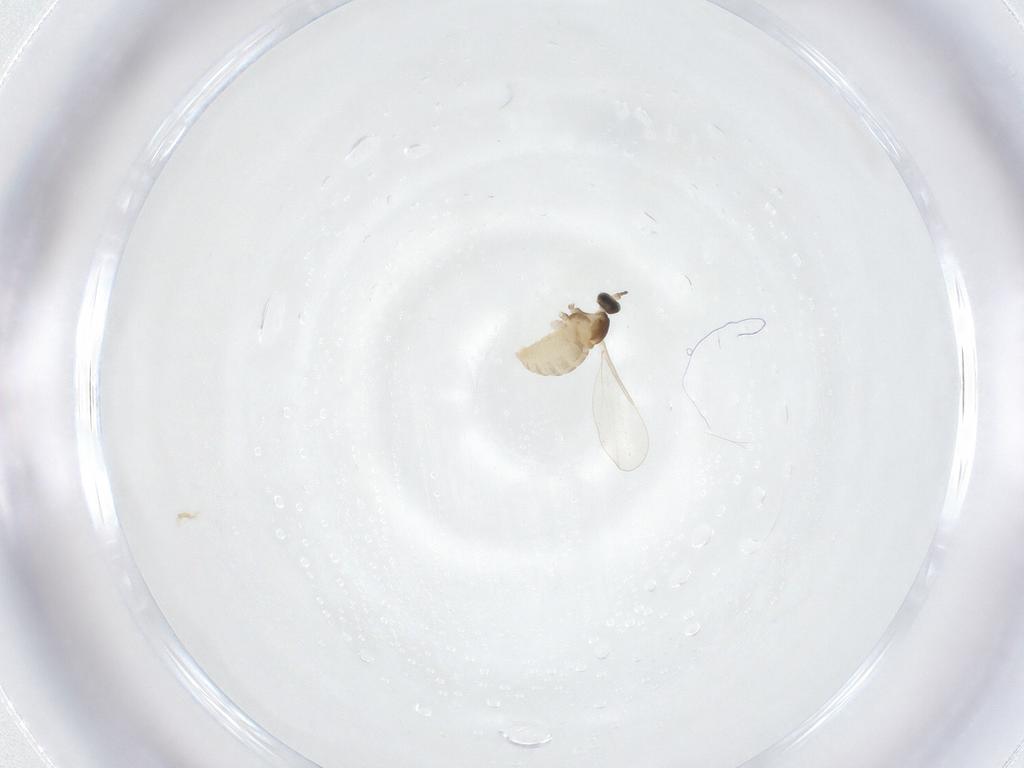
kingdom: Animalia
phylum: Arthropoda
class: Insecta
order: Diptera
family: Cecidomyiidae
